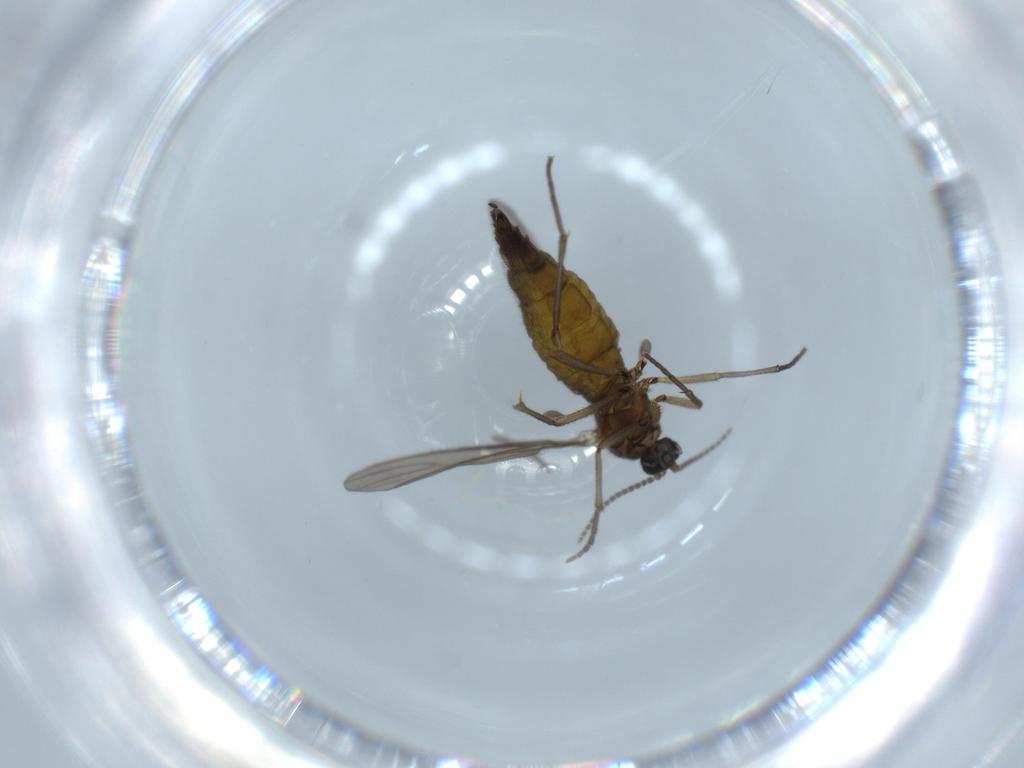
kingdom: Animalia
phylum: Arthropoda
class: Insecta
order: Diptera
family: Sciaridae
